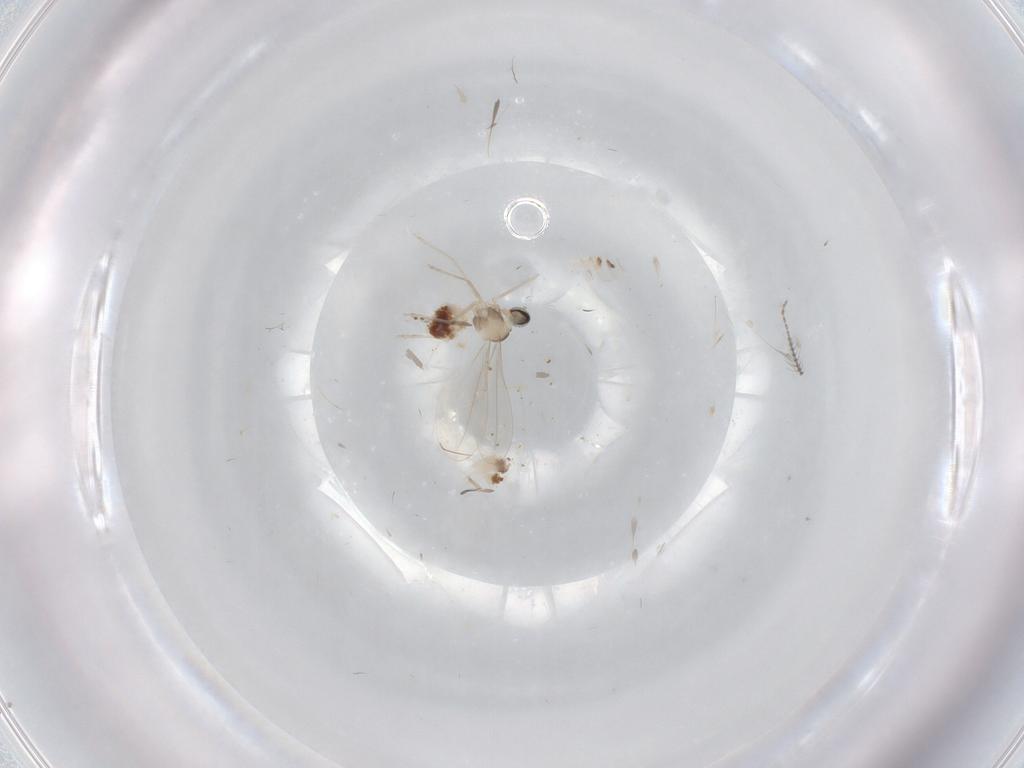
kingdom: Animalia
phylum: Arthropoda
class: Insecta
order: Diptera
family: Cecidomyiidae
